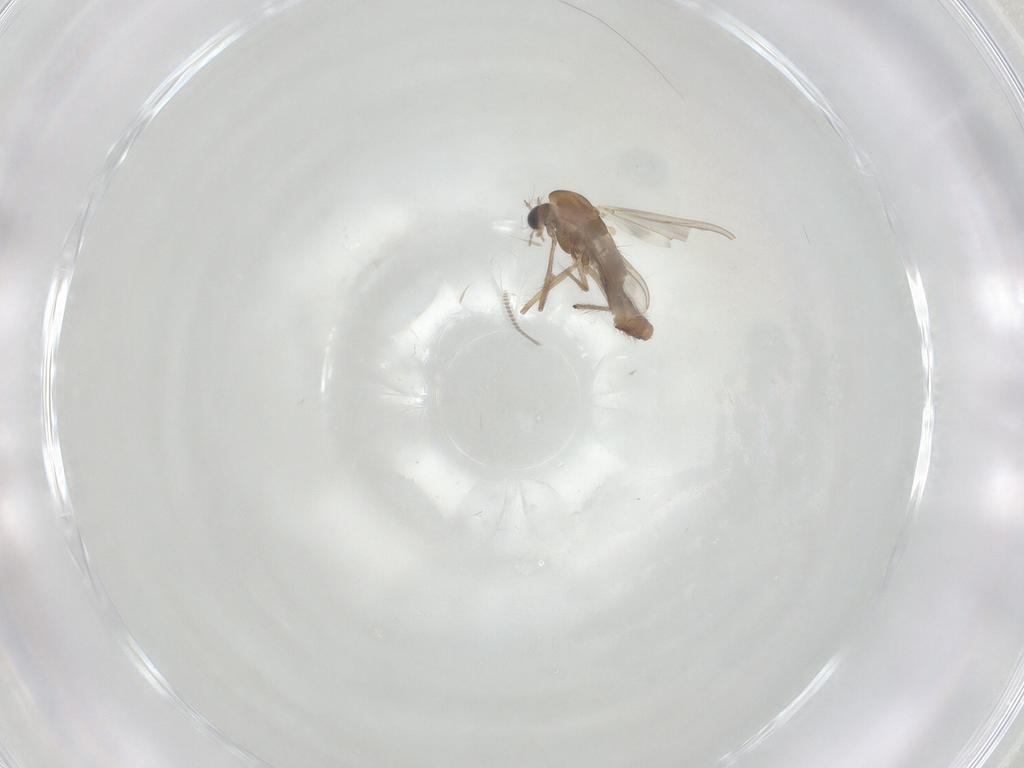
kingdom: Animalia
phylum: Arthropoda
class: Insecta
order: Diptera
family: Chironomidae
